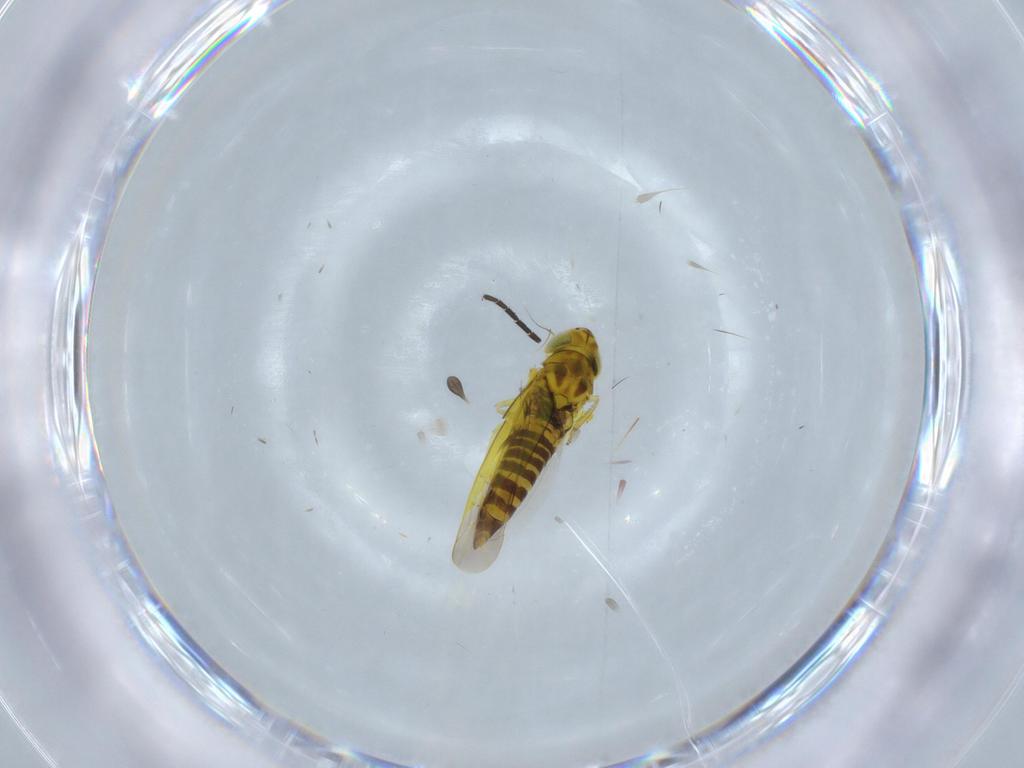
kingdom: Animalia
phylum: Arthropoda
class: Insecta
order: Hemiptera
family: Cicadellidae
